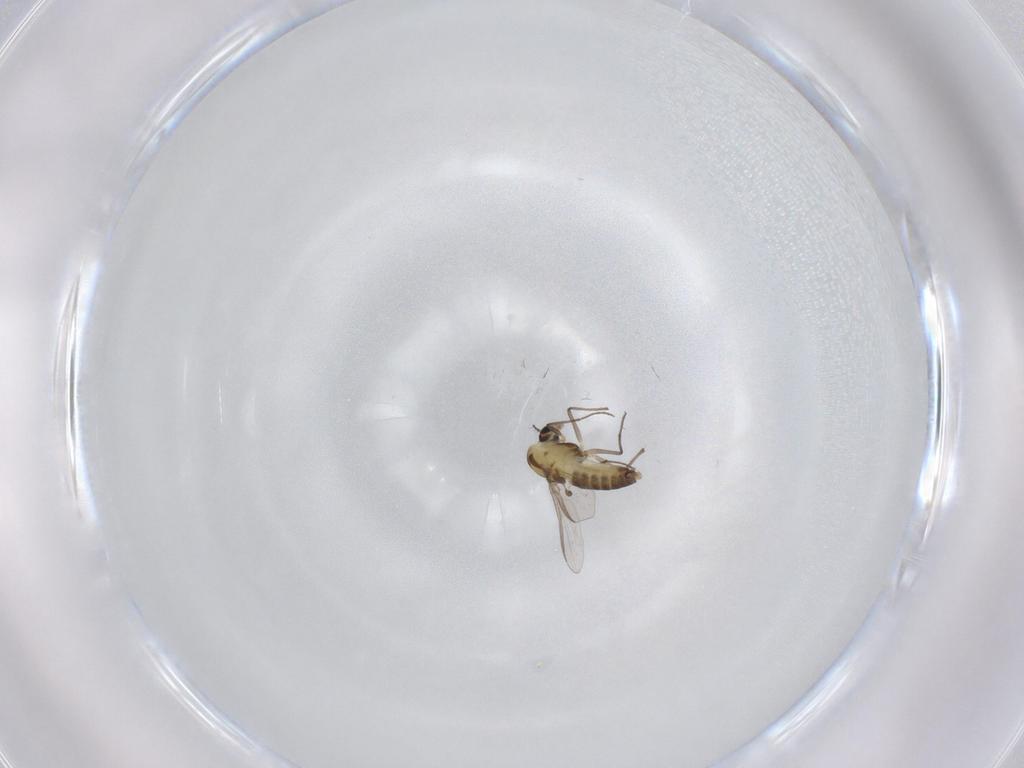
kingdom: Animalia
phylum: Arthropoda
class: Insecta
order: Diptera
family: Chironomidae
